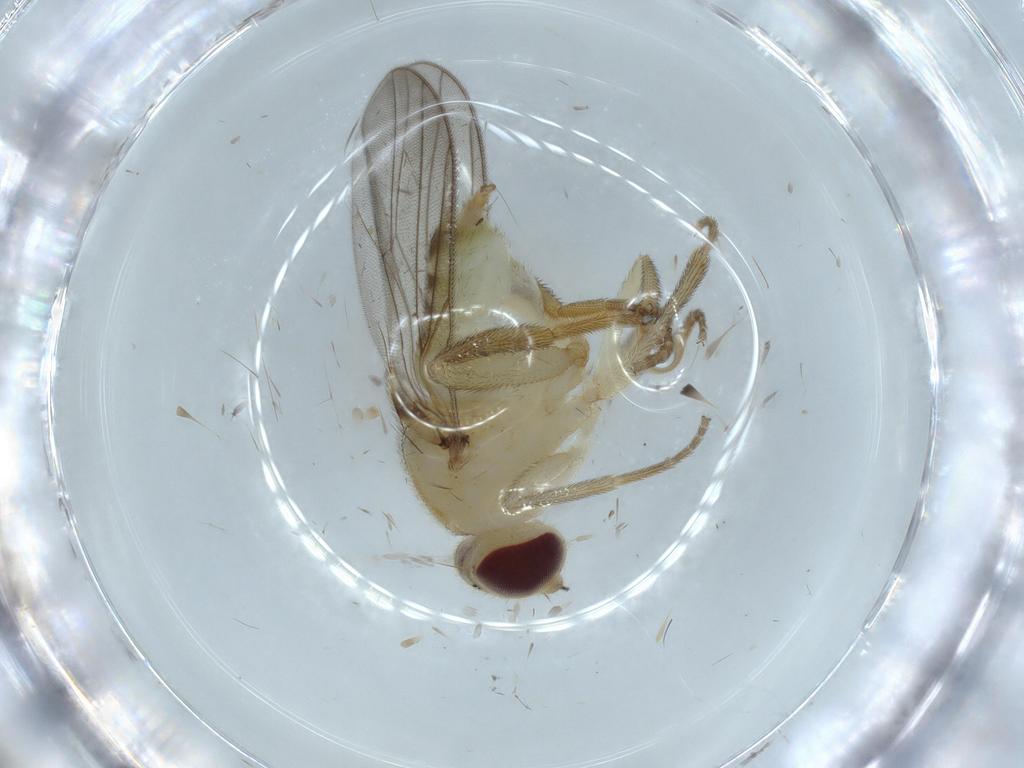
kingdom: Animalia
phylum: Arthropoda
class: Insecta
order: Diptera
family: Chloropidae
